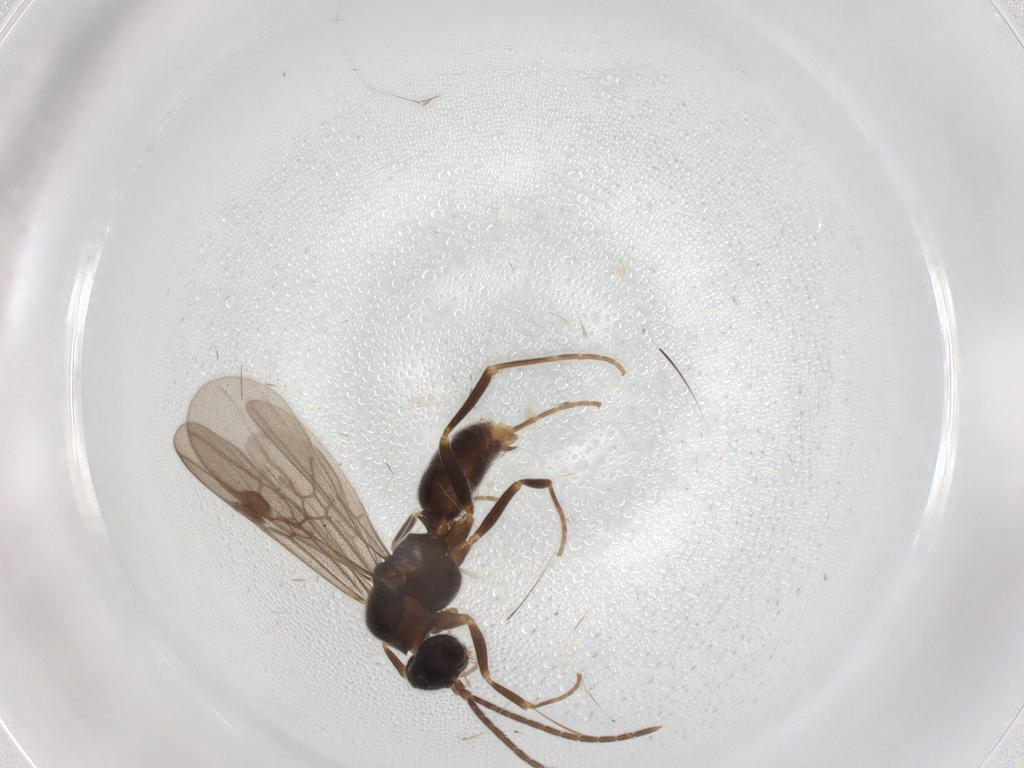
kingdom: Animalia
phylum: Arthropoda
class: Insecta
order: Hymenoptera
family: Formicidae
